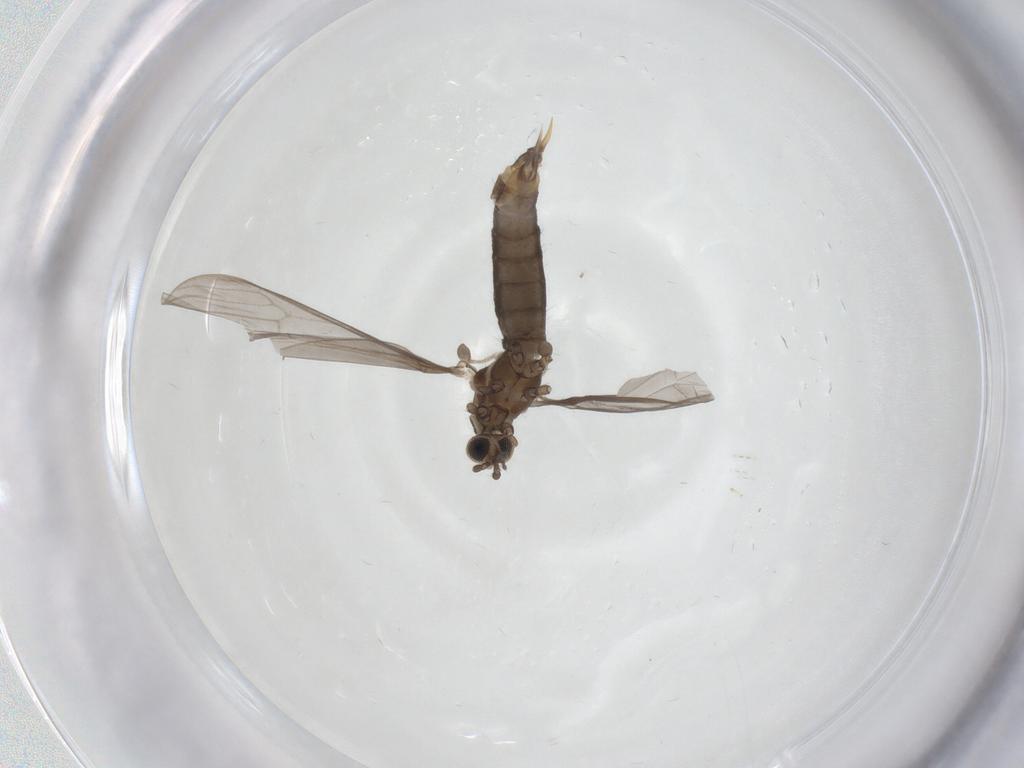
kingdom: Animalia
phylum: Arthropoda
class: Insecta
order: Diptera
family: Limoniidae
